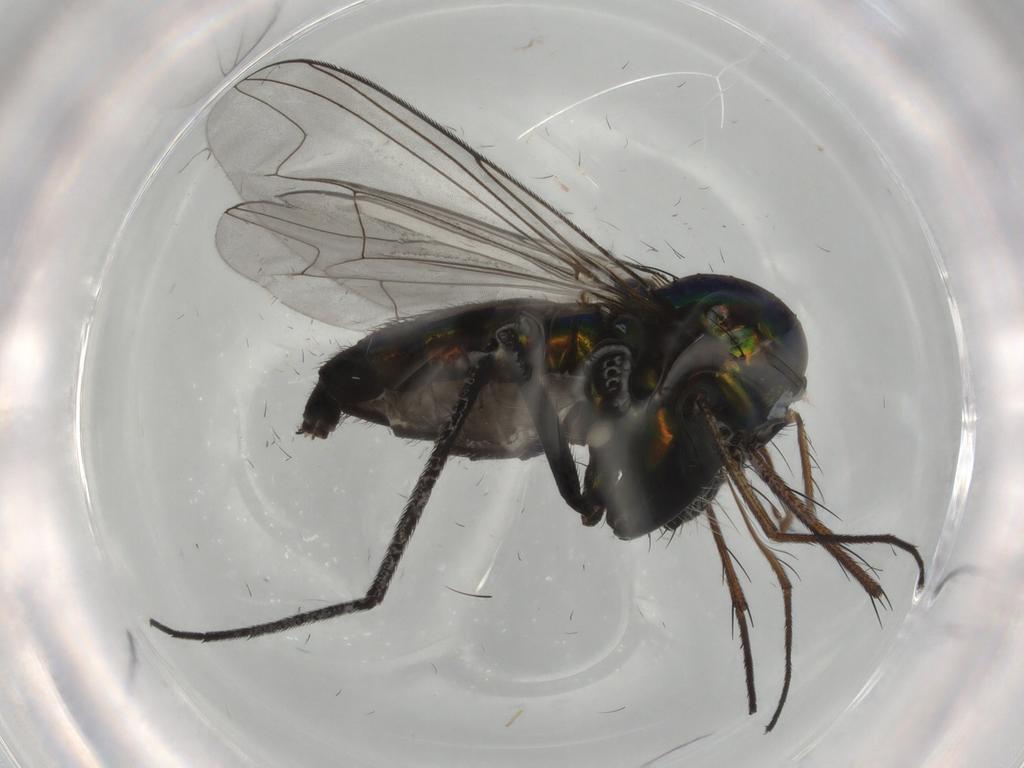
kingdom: Animalia
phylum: Arthropoda
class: Insecta
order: Diptera
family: Dolichopodidae
